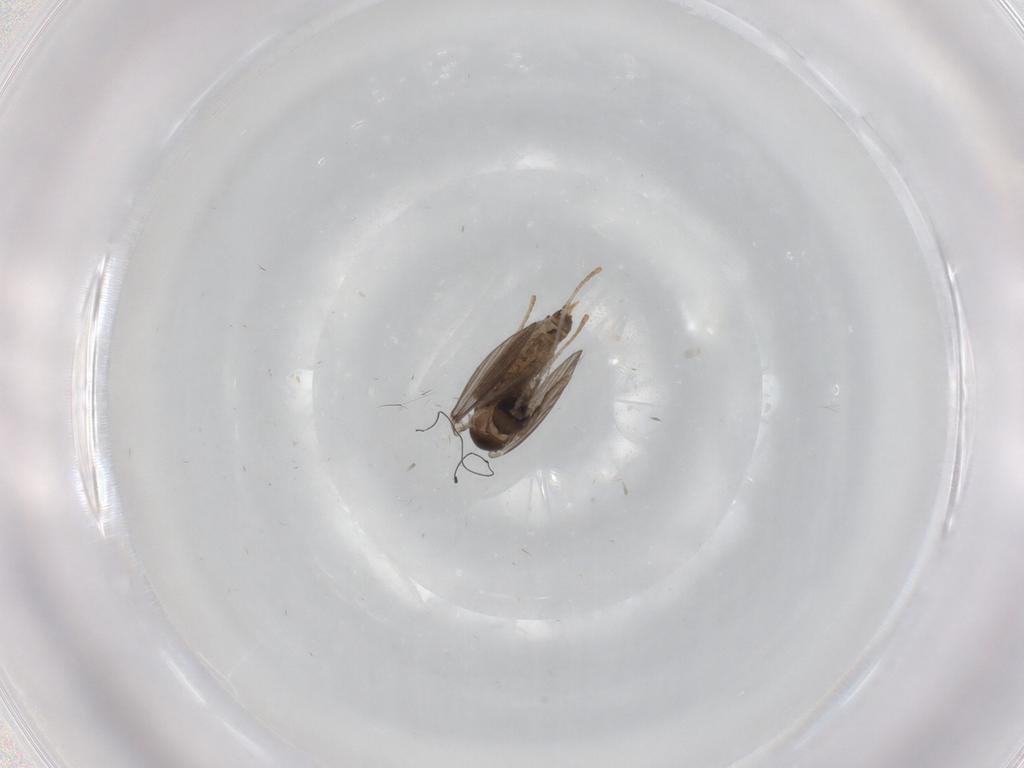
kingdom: Animalia
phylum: Arthropoda
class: Insecta
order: Diptera
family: Psychodidae
